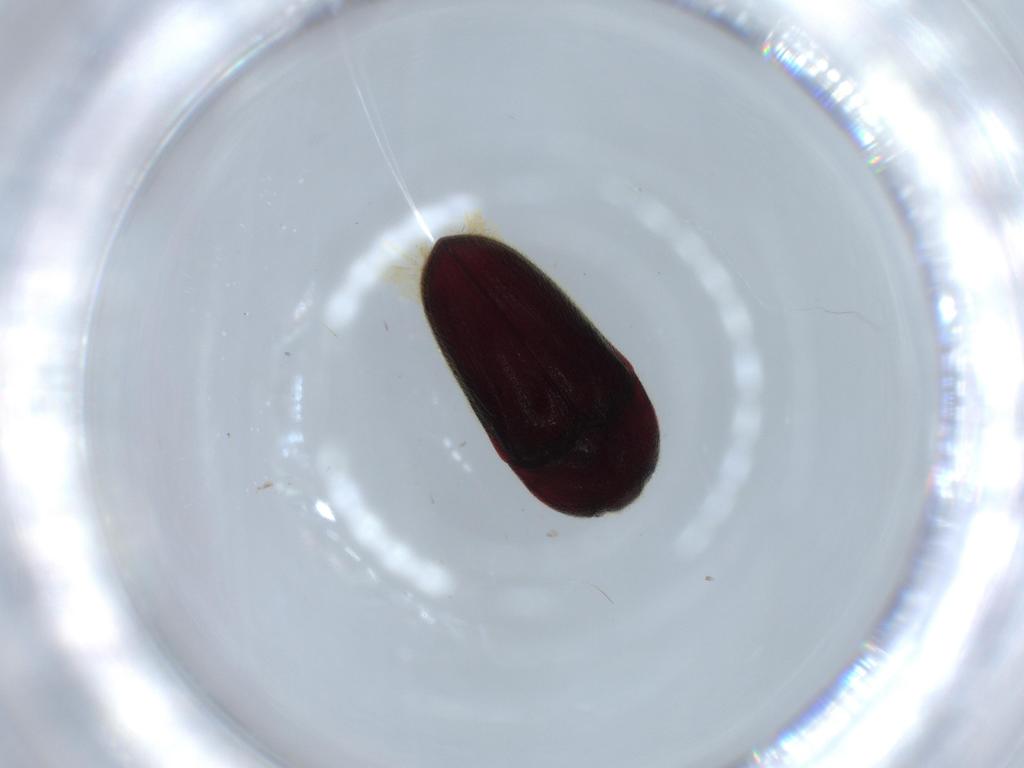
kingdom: Animalia
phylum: Arthropoda
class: Insecta
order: Coleoptera
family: Throscidae
